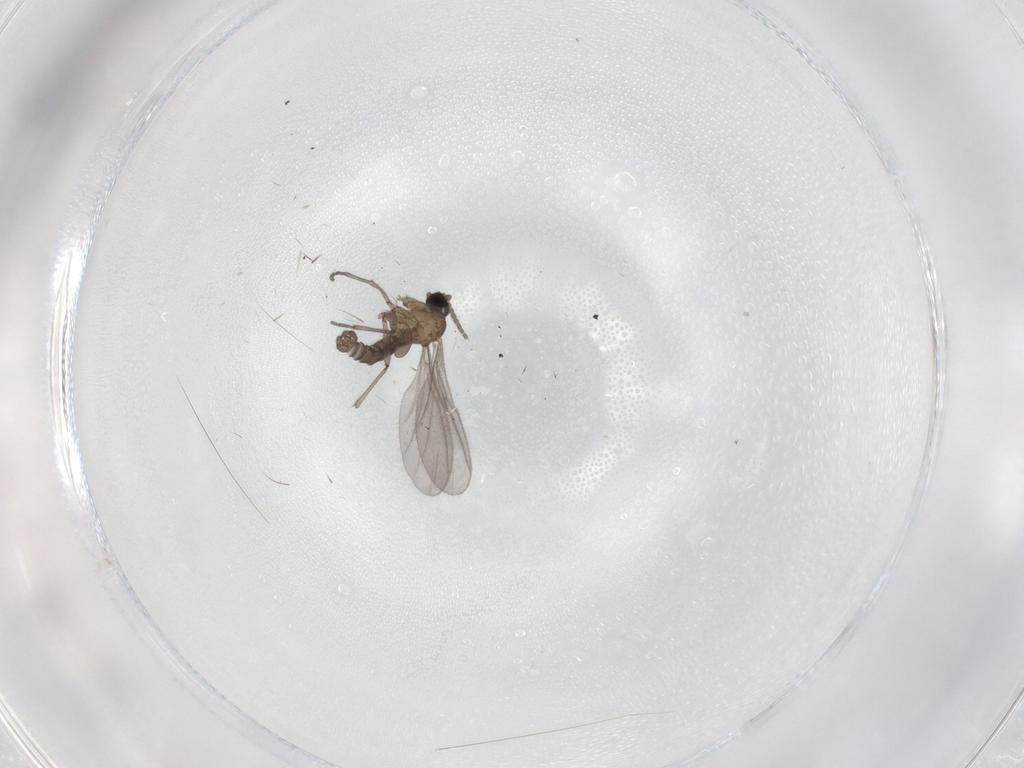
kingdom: Animalia
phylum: Arthropoda
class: Insecta
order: Diptera
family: Sciaridae
